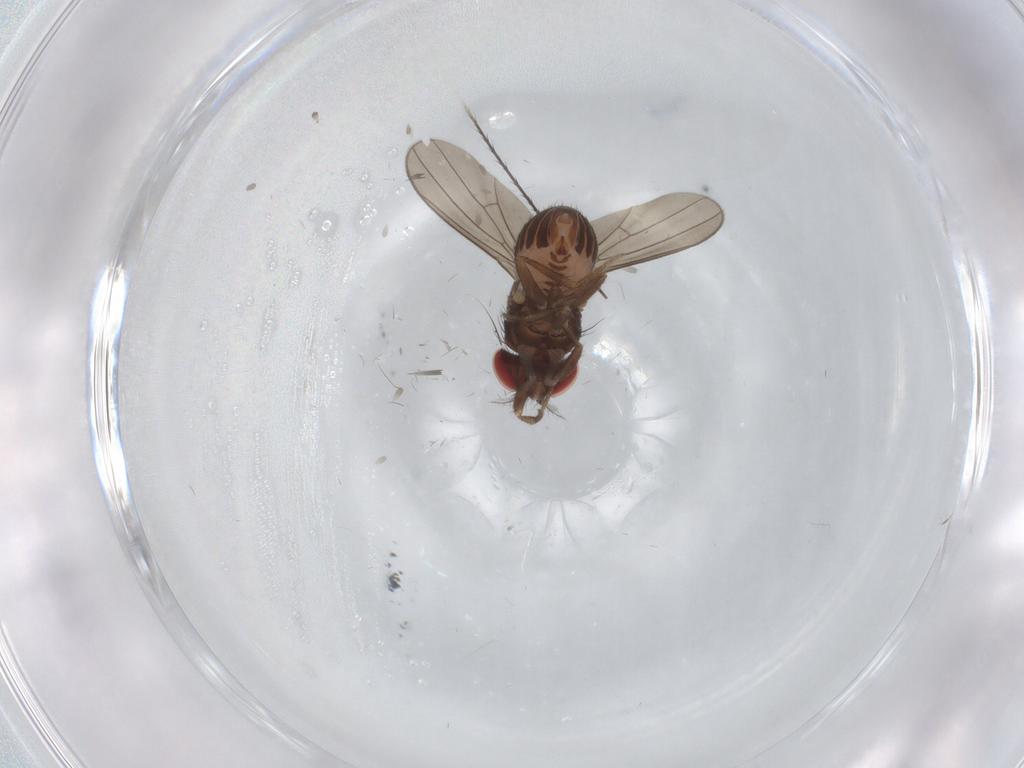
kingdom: Animalia
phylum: Arthropoda
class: Insecta
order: Diptera
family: Drosophilidae
